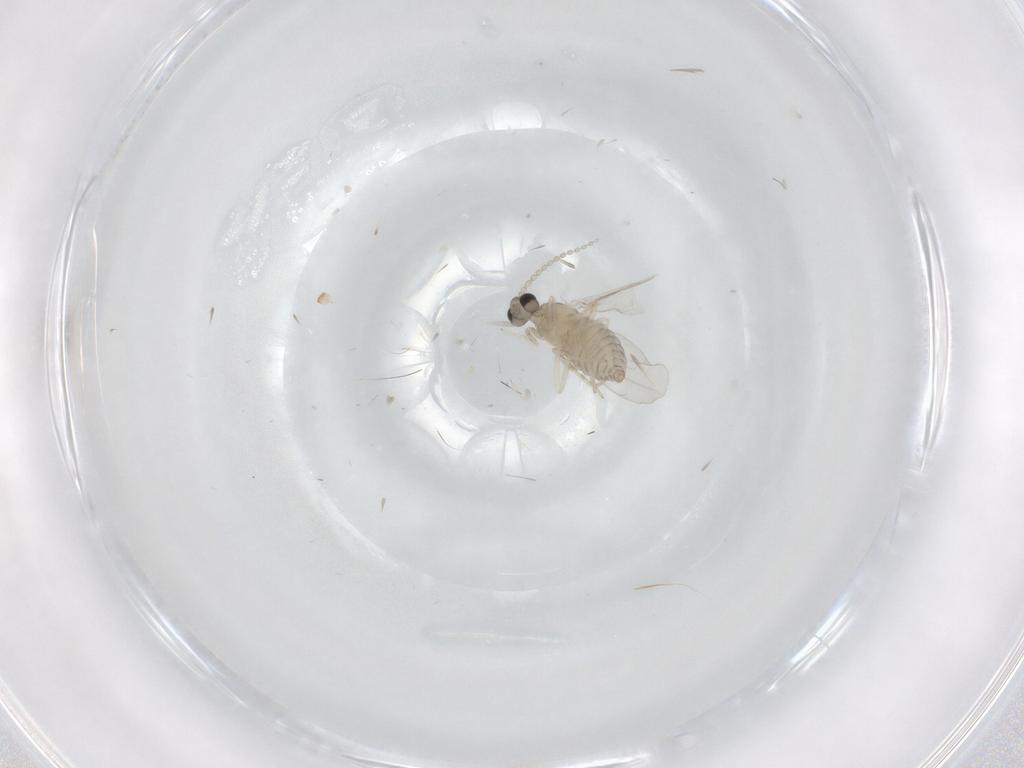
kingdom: Animalia
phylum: Arthropoda
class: Insecta
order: Diptera
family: Cecidomyiidae
